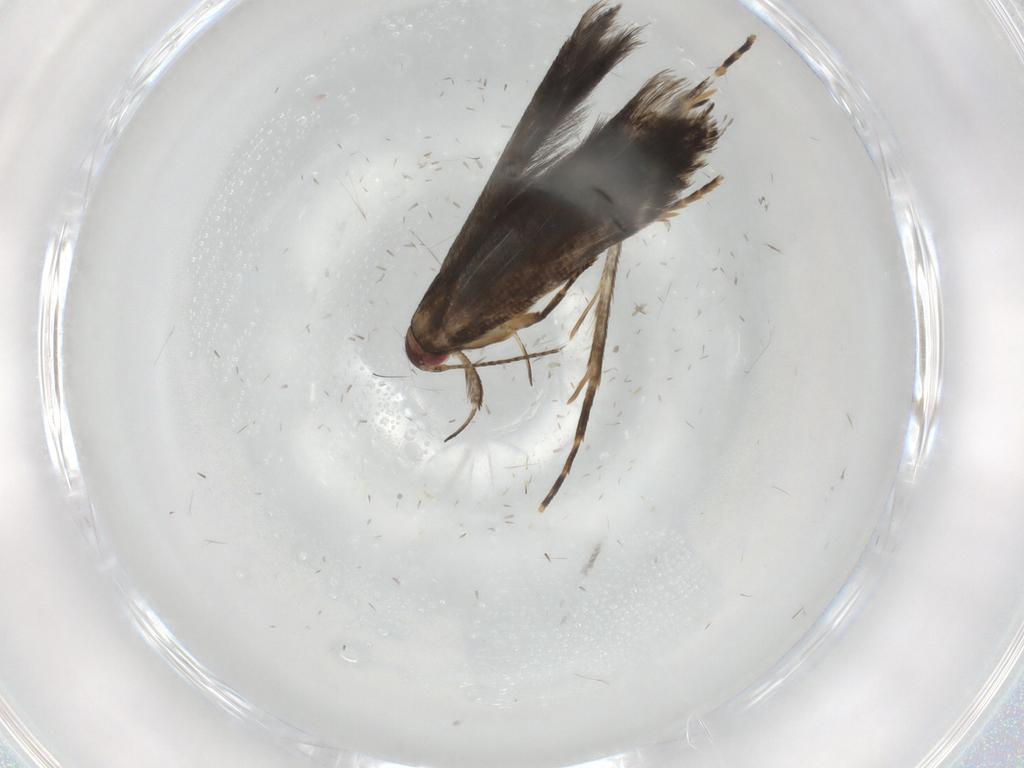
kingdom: Animalia
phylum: Arthropoda
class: Insecta
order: Lepidoptera
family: Gelechiidae
